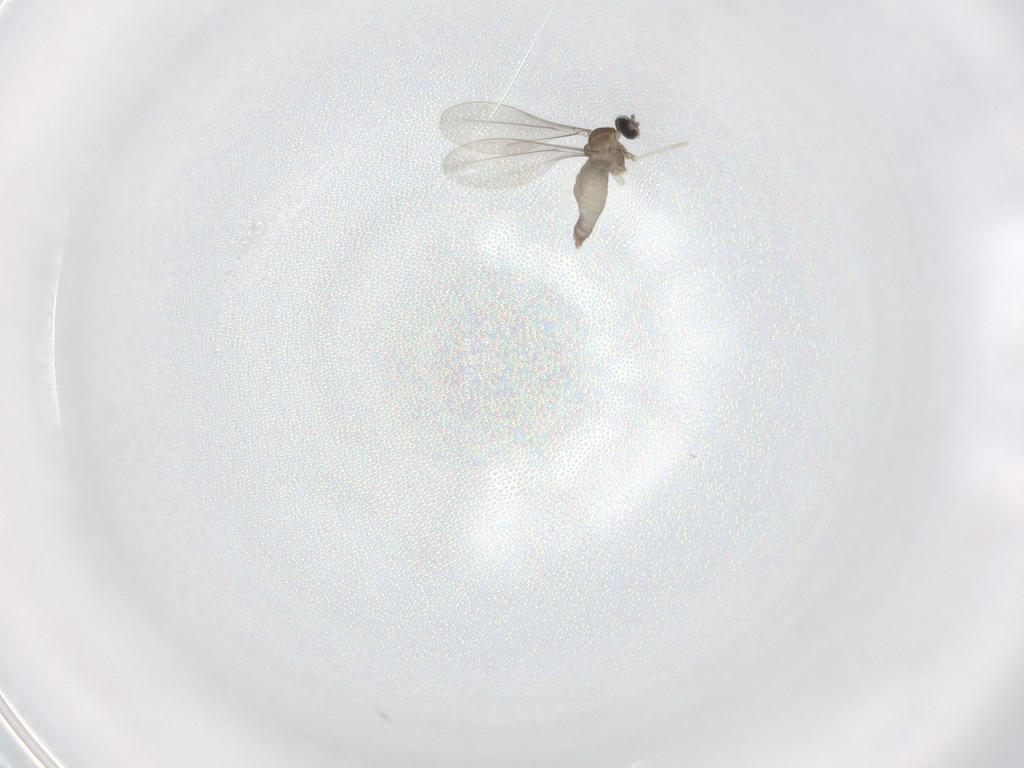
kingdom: Animalia
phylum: Arthropoda
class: Insecta
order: Diptera
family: Cecidomyiidae
